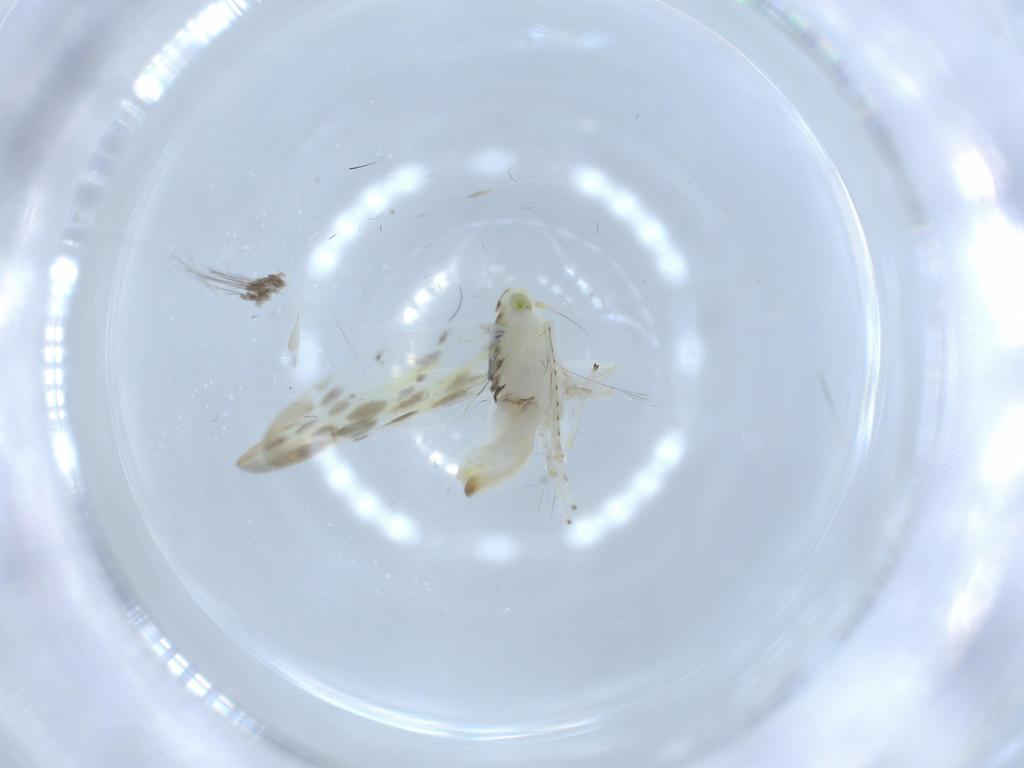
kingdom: Animalia
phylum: Arthropoda
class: Insecta
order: Hemiptera
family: Cicadellidae
